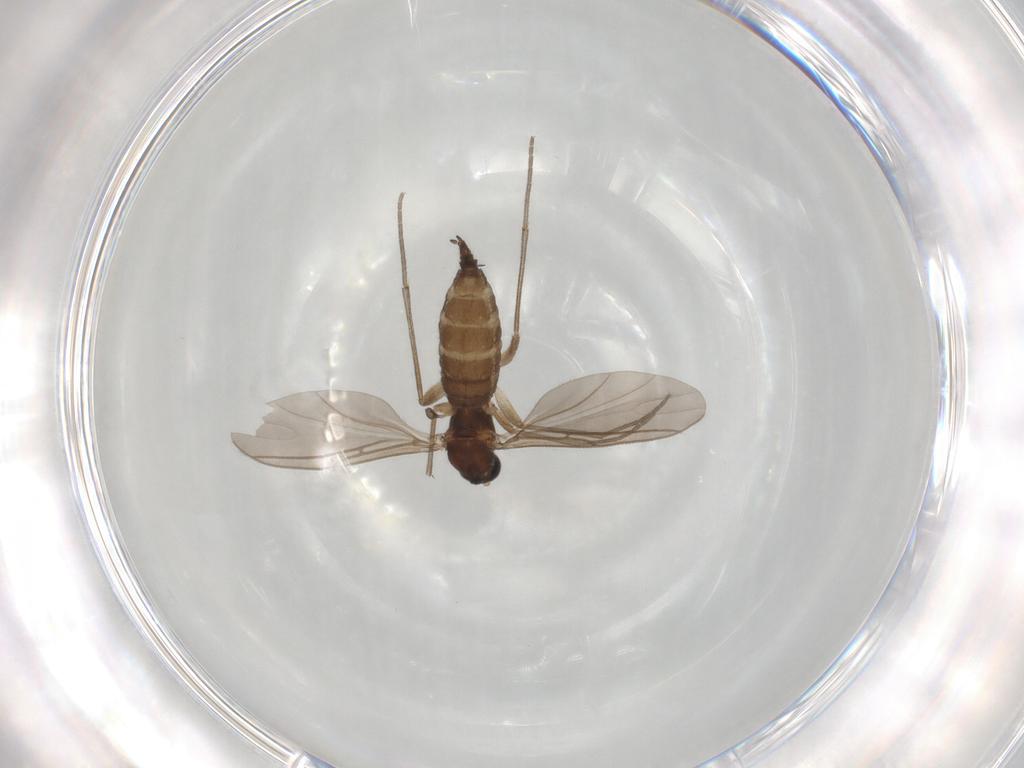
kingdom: Animalia
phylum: Arthropoda
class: Insecta
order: Diptera
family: Sciaridae
